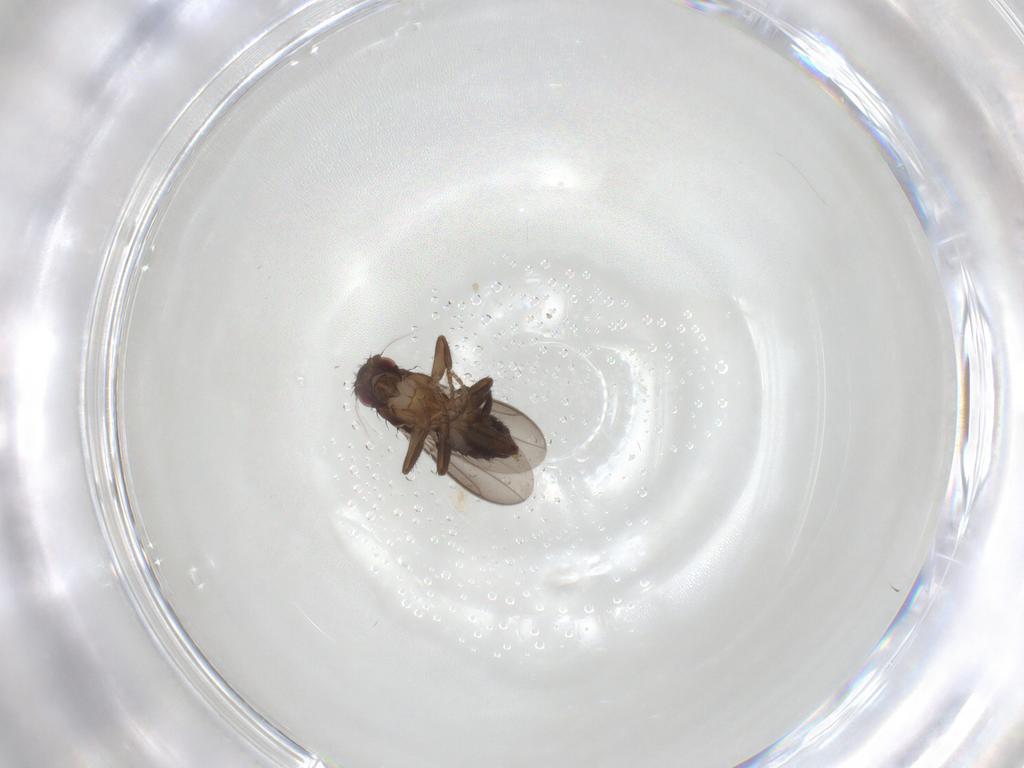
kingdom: Animalia
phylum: Arthropoda
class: Insecta
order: Diptera
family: Sphaeroceridae
